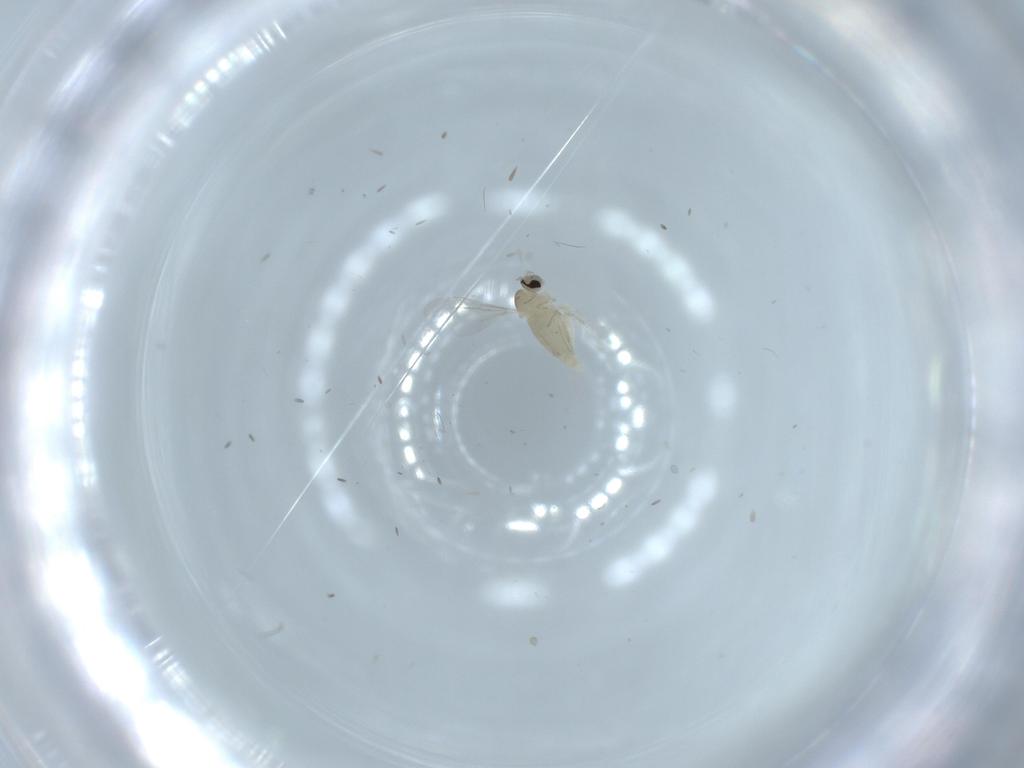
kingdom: Animalia
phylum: Arthropoda
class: Insecta
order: Diptera
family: Cecidomyiidae
